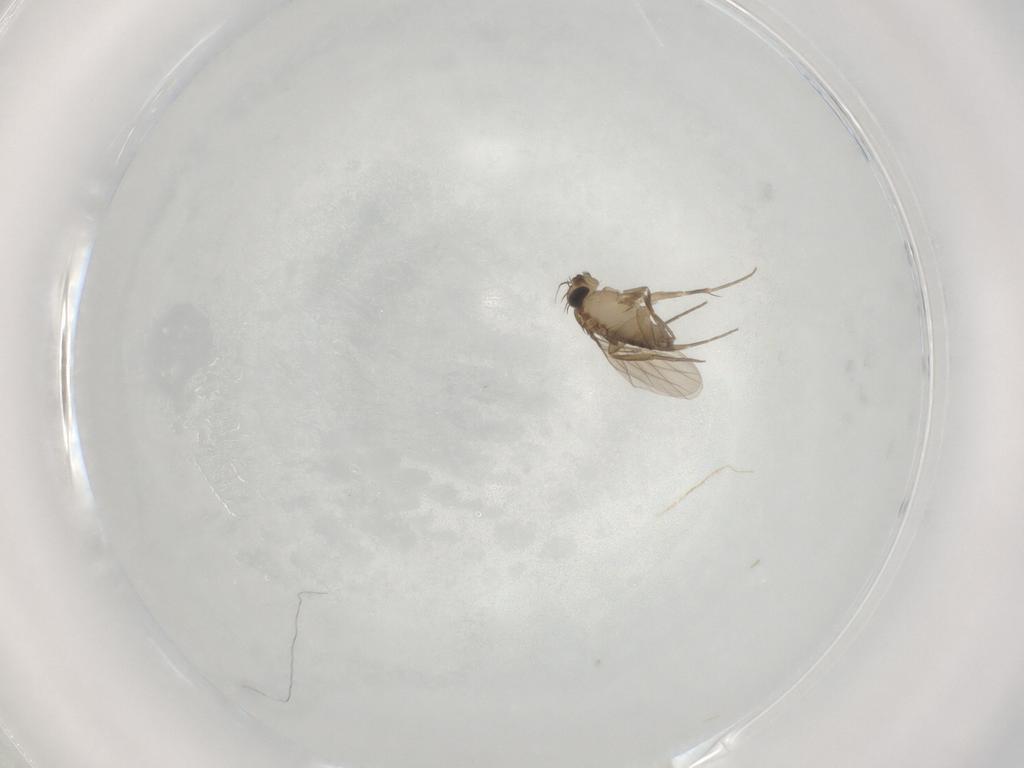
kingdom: Animalia
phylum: Arthropoda
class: Insecta
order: Diptera
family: Phoridae
